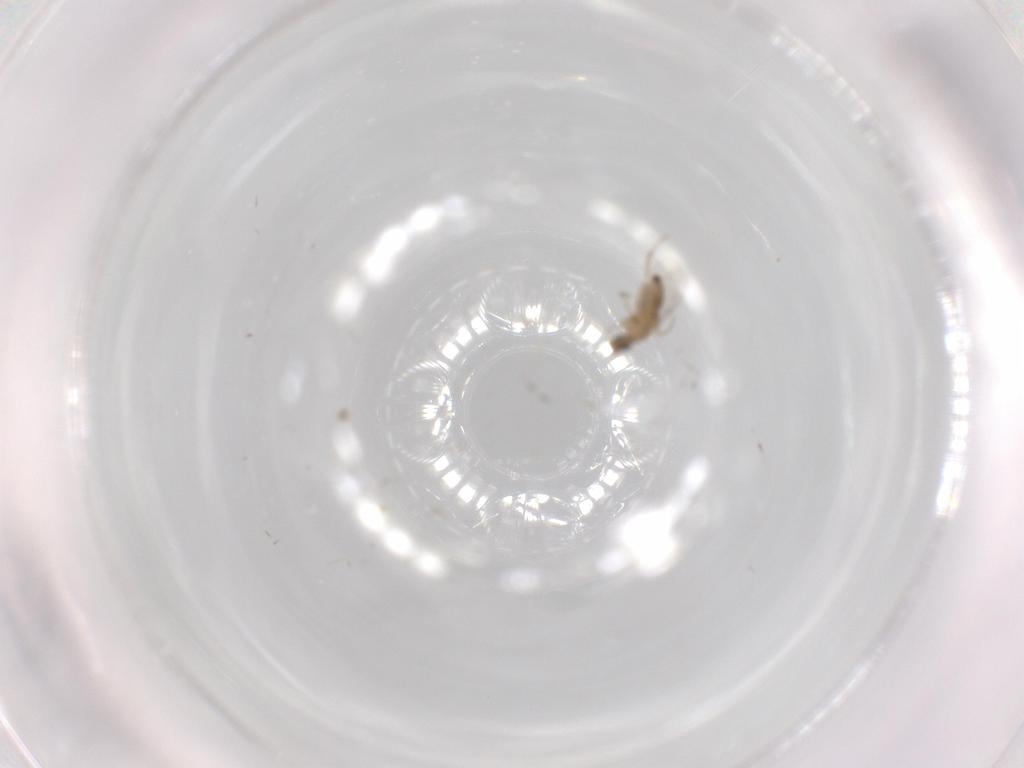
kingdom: Animalia
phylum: Arthropoda
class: Insecta
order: Diptera
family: Phoridae
